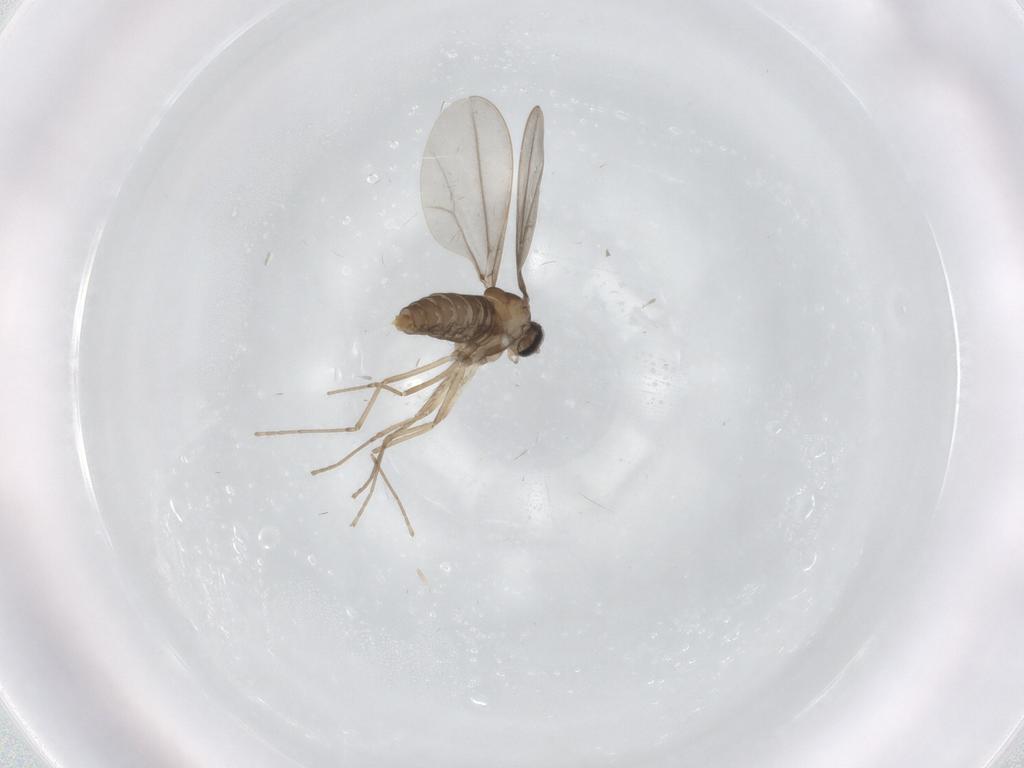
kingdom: Animalia
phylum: Arthropoda
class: Insecta
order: Diptera
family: Cecidomyiidae
